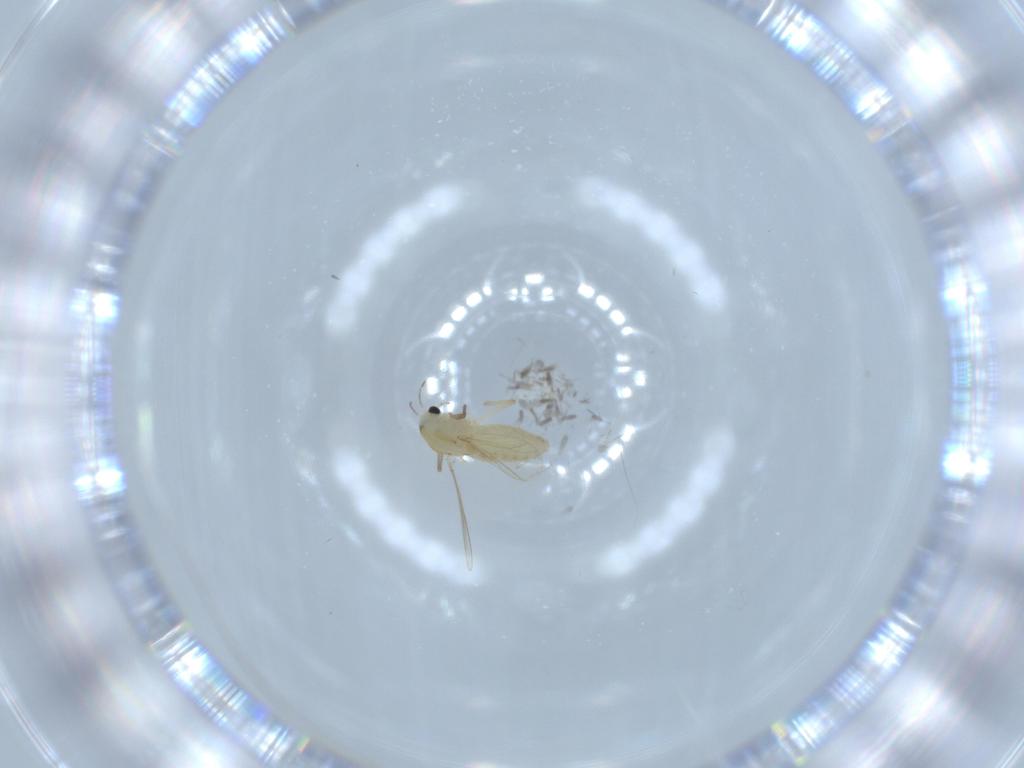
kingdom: Animalia
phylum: Arthropoda
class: Insecta
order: Diptera
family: Chironomidae
